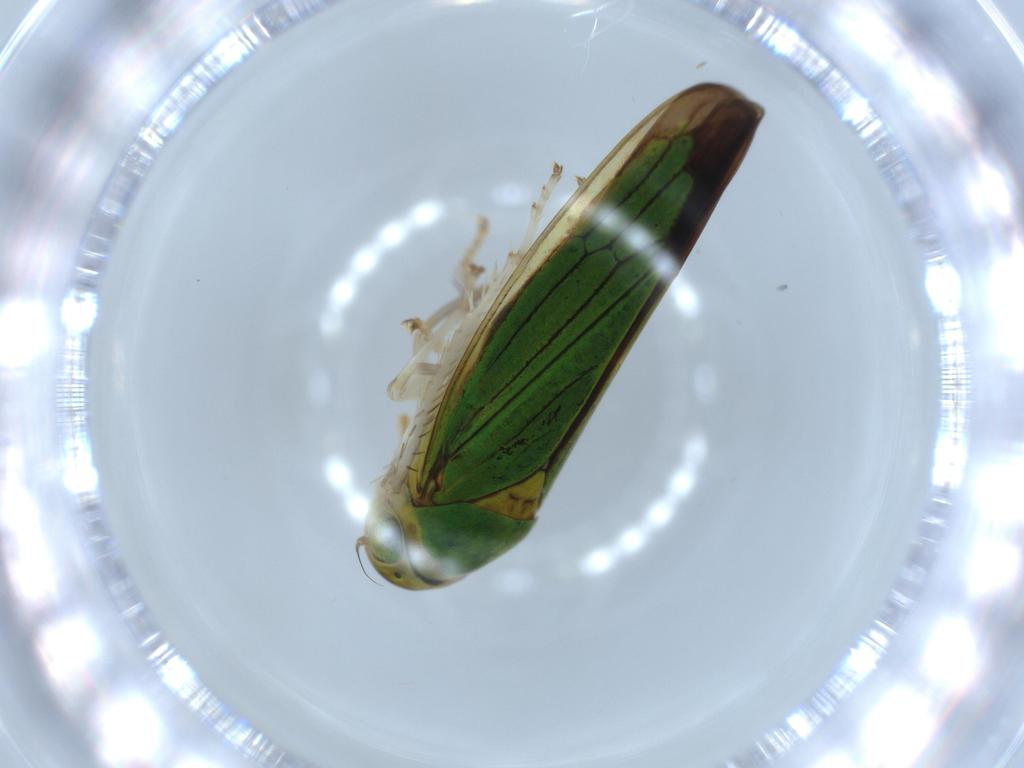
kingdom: Animalia
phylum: Arthropoda
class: Insecta
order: Hemiptera
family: Cicadellidae
